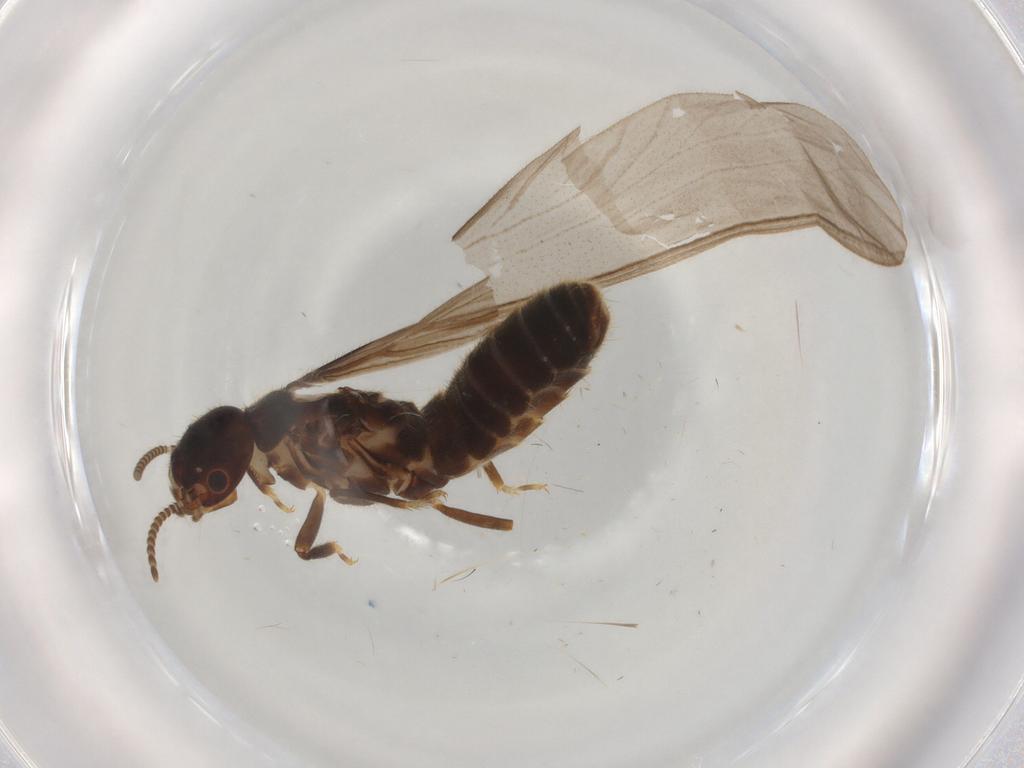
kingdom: Animalia
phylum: Arthropoda
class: Insecta
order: Blattodea
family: Termitidae
